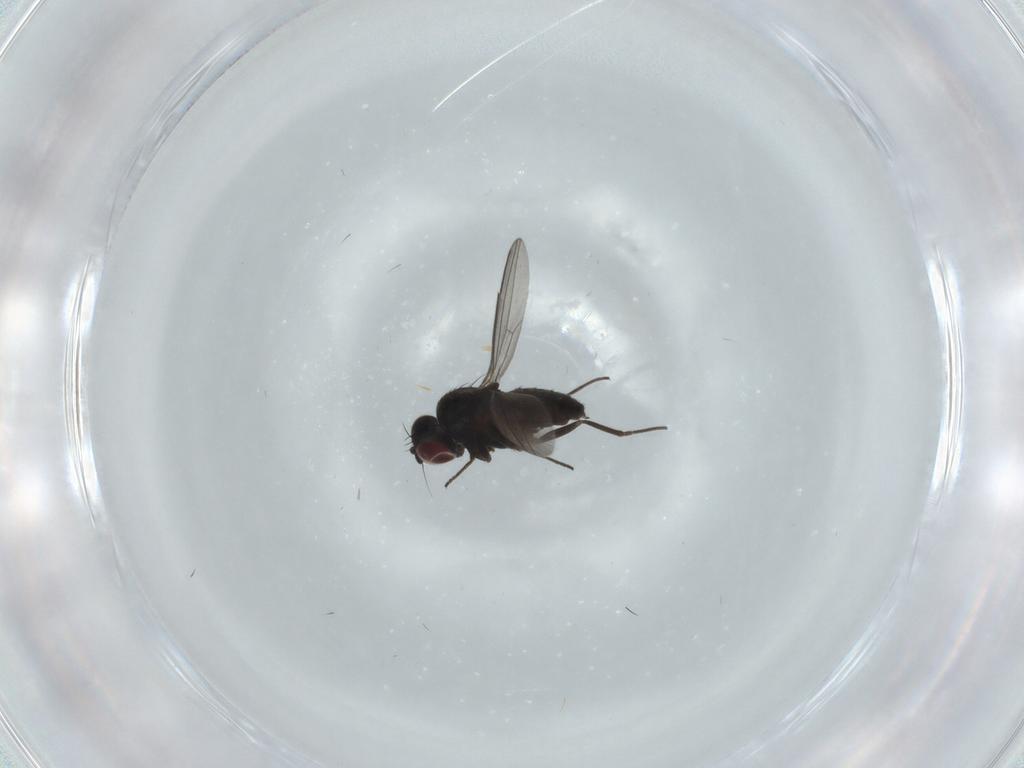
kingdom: Animalia
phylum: Arthropoda
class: Insecta
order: Diptera
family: Dolichopodidae
